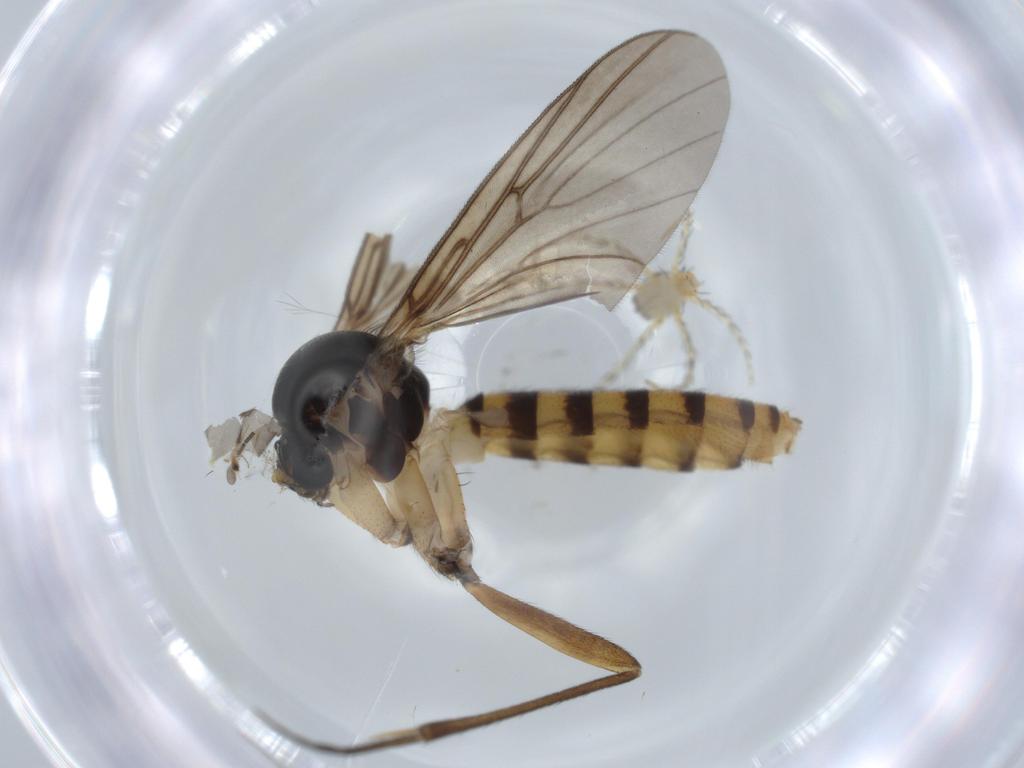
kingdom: Animalia
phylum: Arthropoda
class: Arachnida
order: Trombidiformes
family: Erythraeidae
